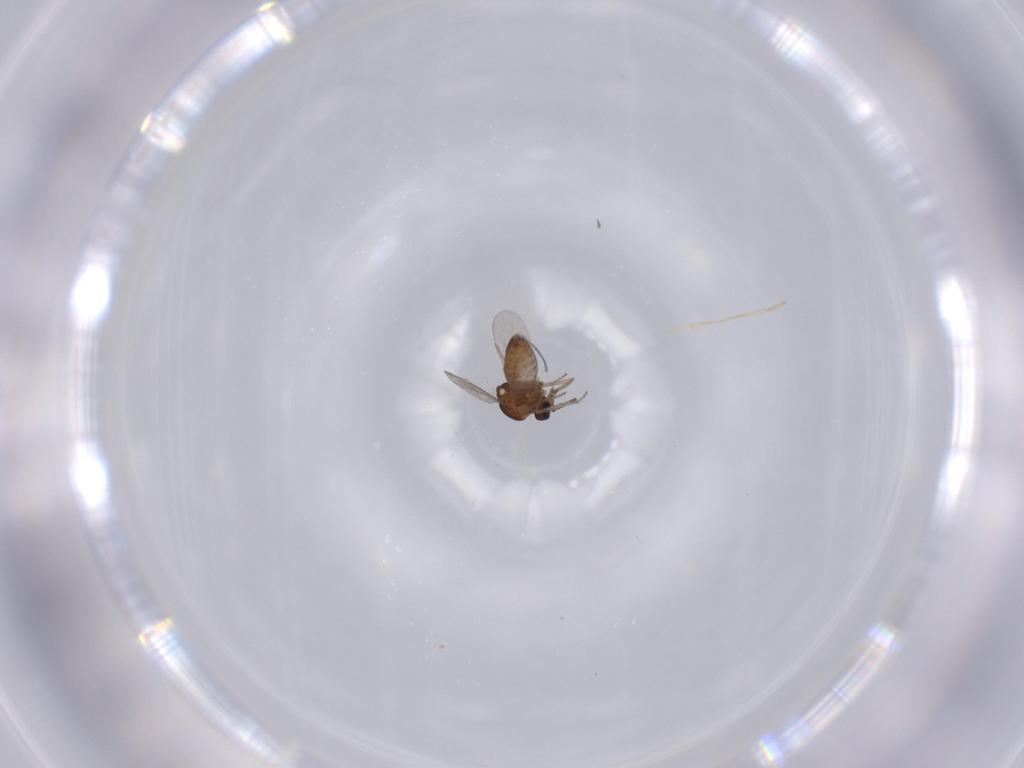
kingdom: Animalia
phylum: Arthropoda
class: Insecta
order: Diptera
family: Ceratopogonidae
